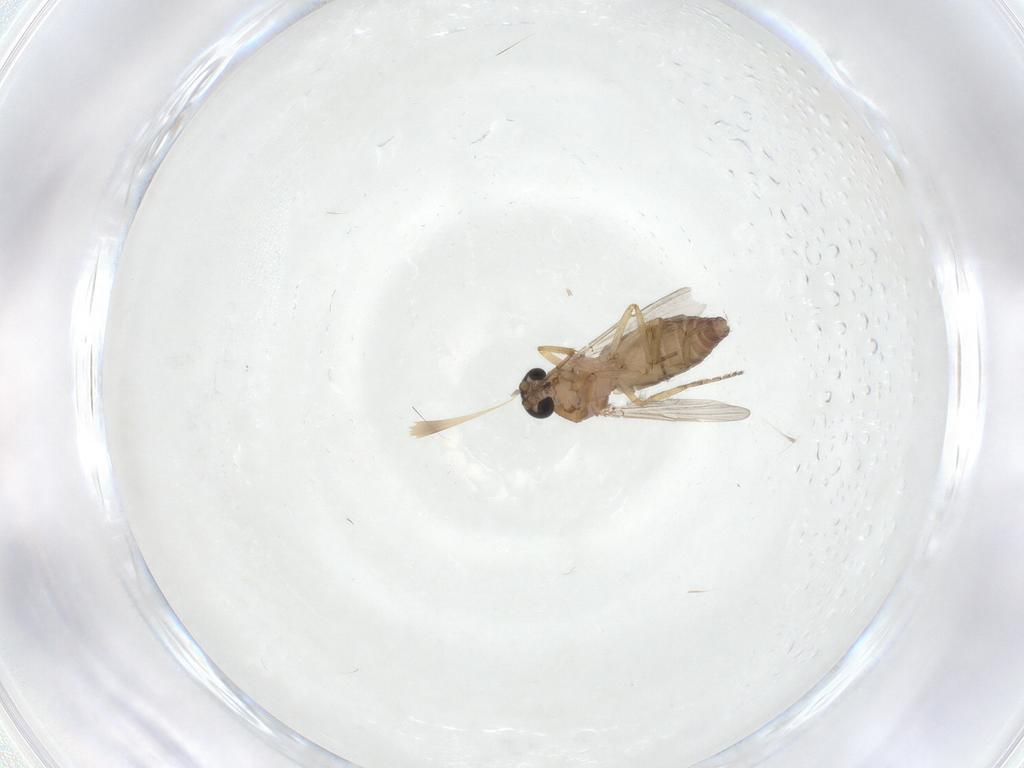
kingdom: Animalia
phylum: Arthropoda
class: Insecta
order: Diptera
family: Ceratopogonidae
